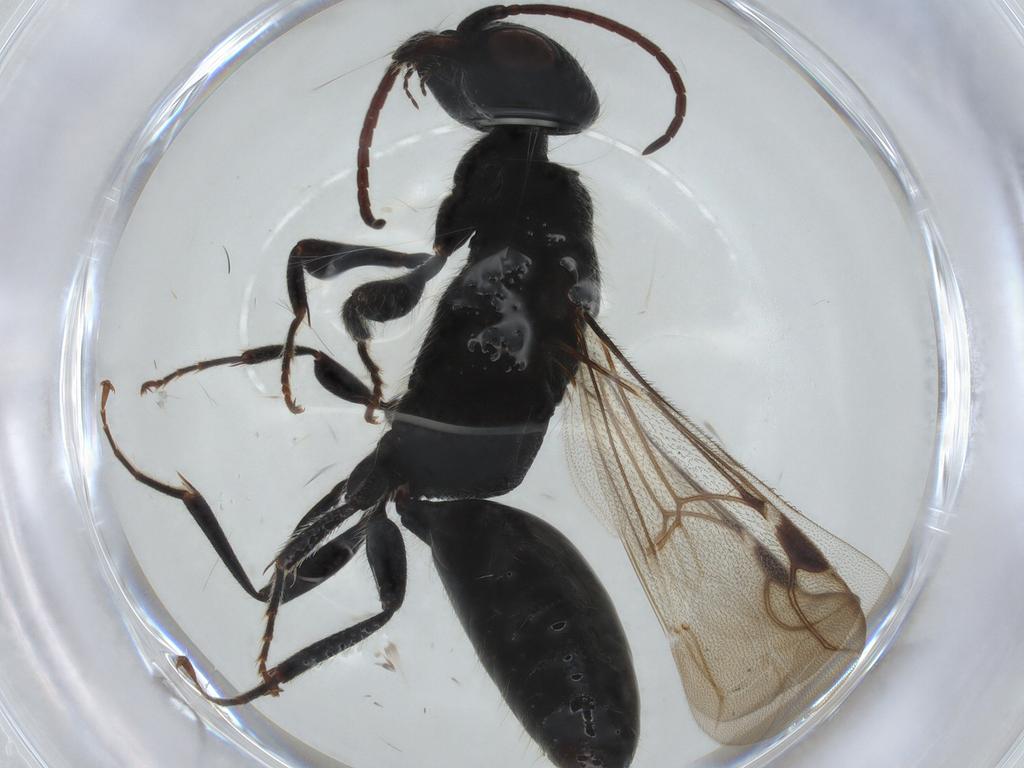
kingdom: Animalia
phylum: Arthropoda
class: Insecta
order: Hymenoptera
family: Bethylidae
